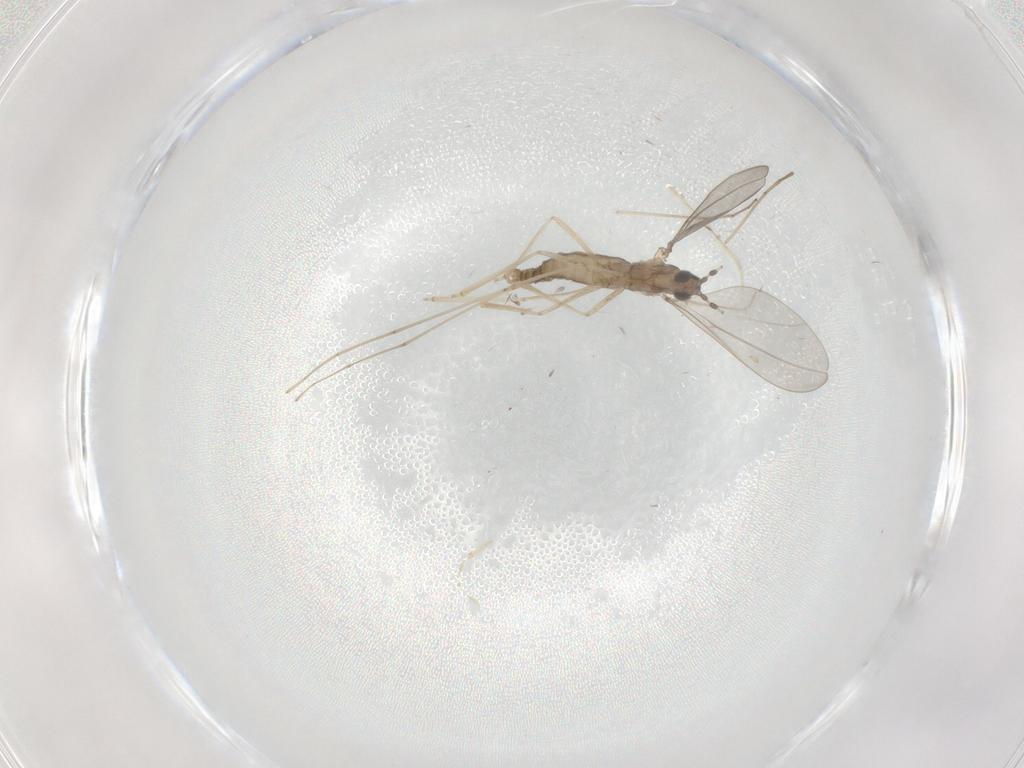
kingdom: Animalia
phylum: Arthropoda
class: Insecta
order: Diptera
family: Cecidomyiidae
